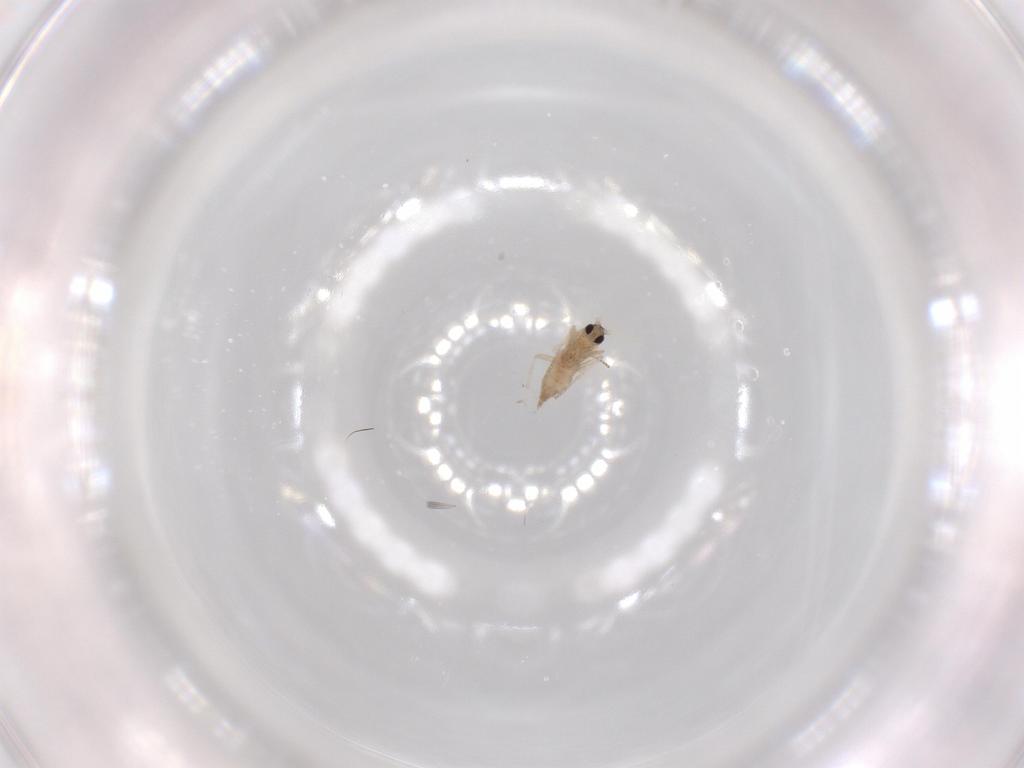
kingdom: Animalia
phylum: Arthropoda
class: Insecta
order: Diptera
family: Cecidomyiidae
